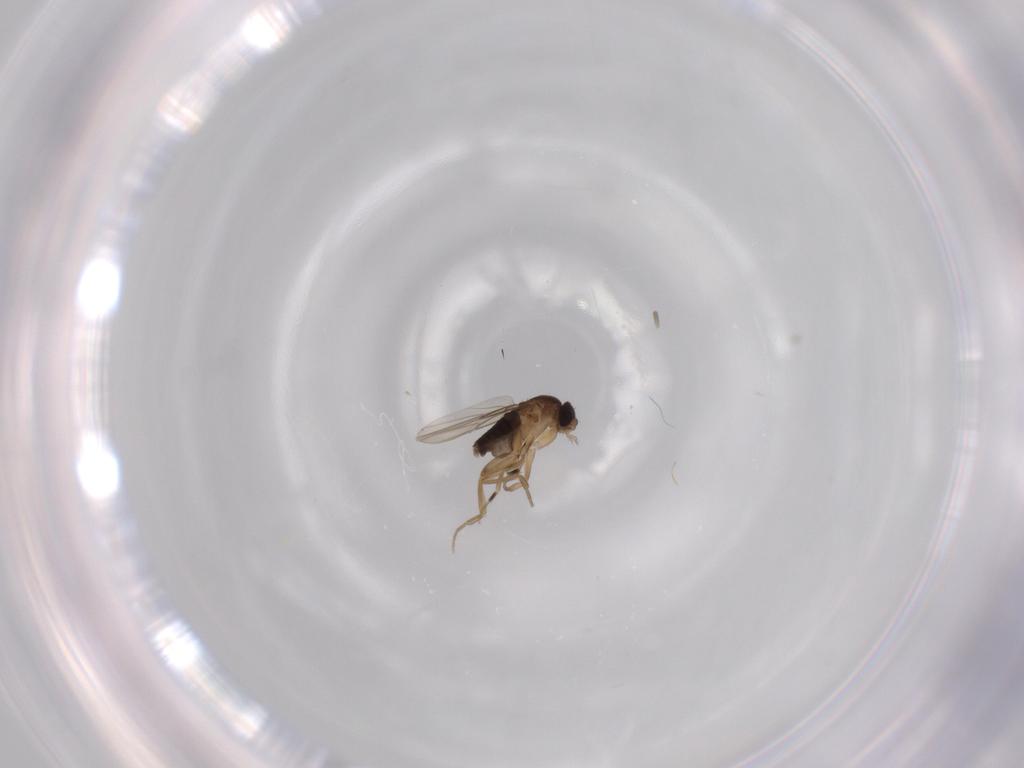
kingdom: Animalia
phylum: Arthropoda
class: Insecta
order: Diptera
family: Phoridae
